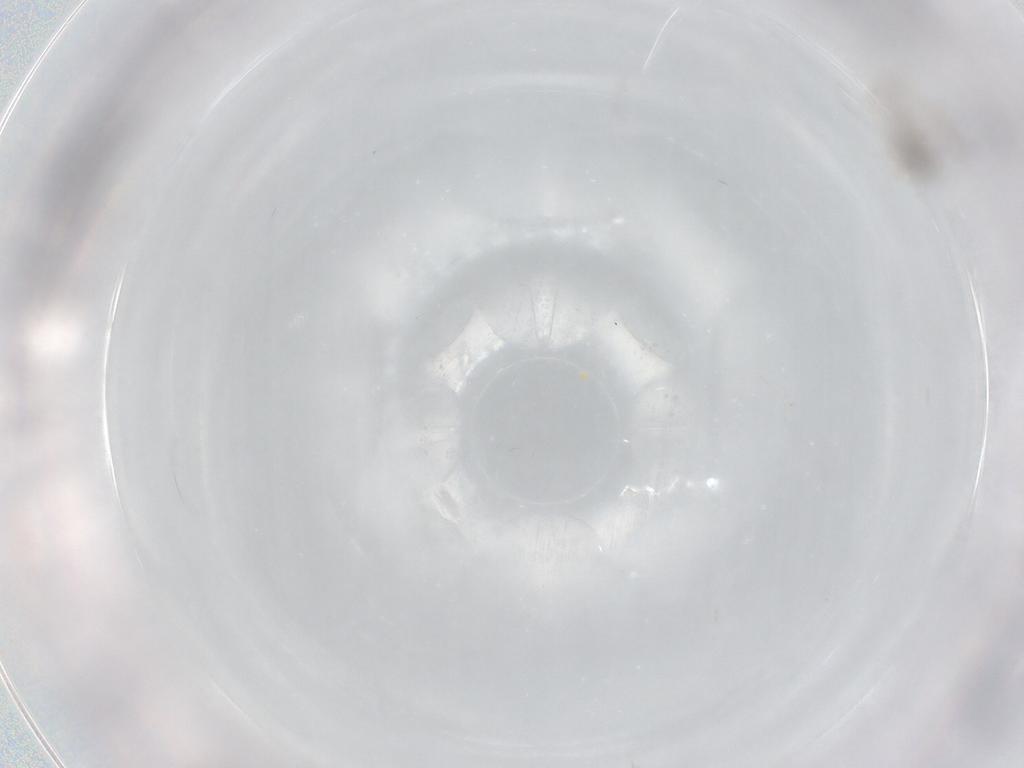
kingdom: Animalia
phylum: Arthropoda
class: Insecta
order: Diptera
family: Cecidomyiidae
